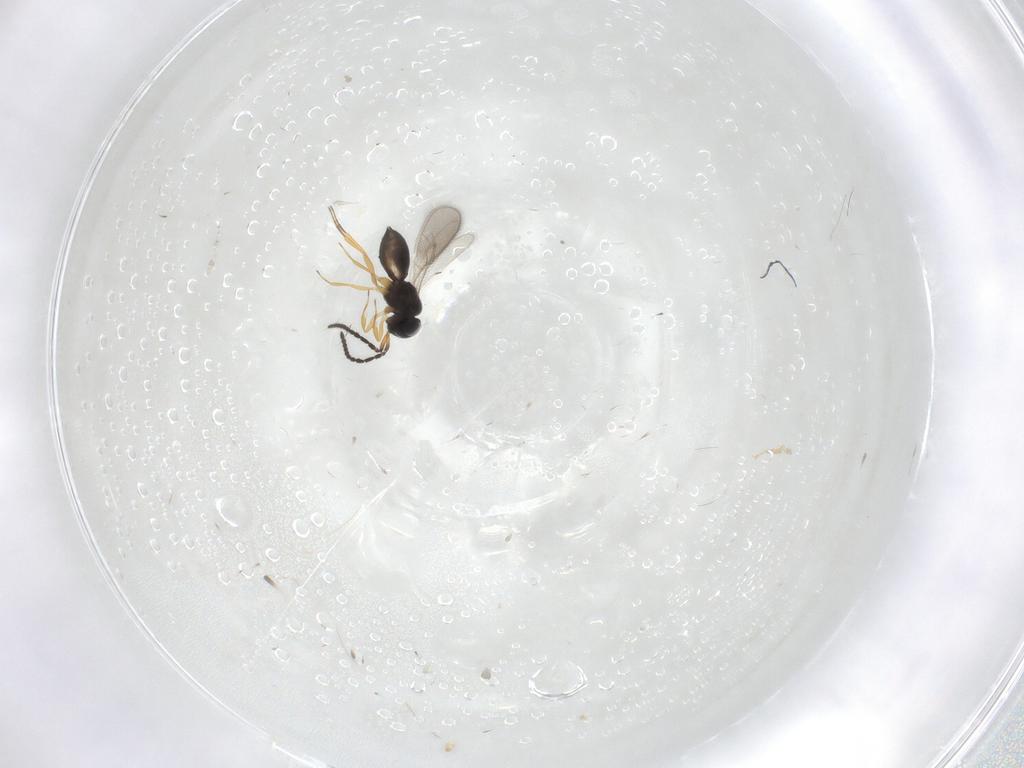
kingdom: Animalia
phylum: Arthropoda
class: Insecta
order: Hymenoptera
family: Scelionidae
